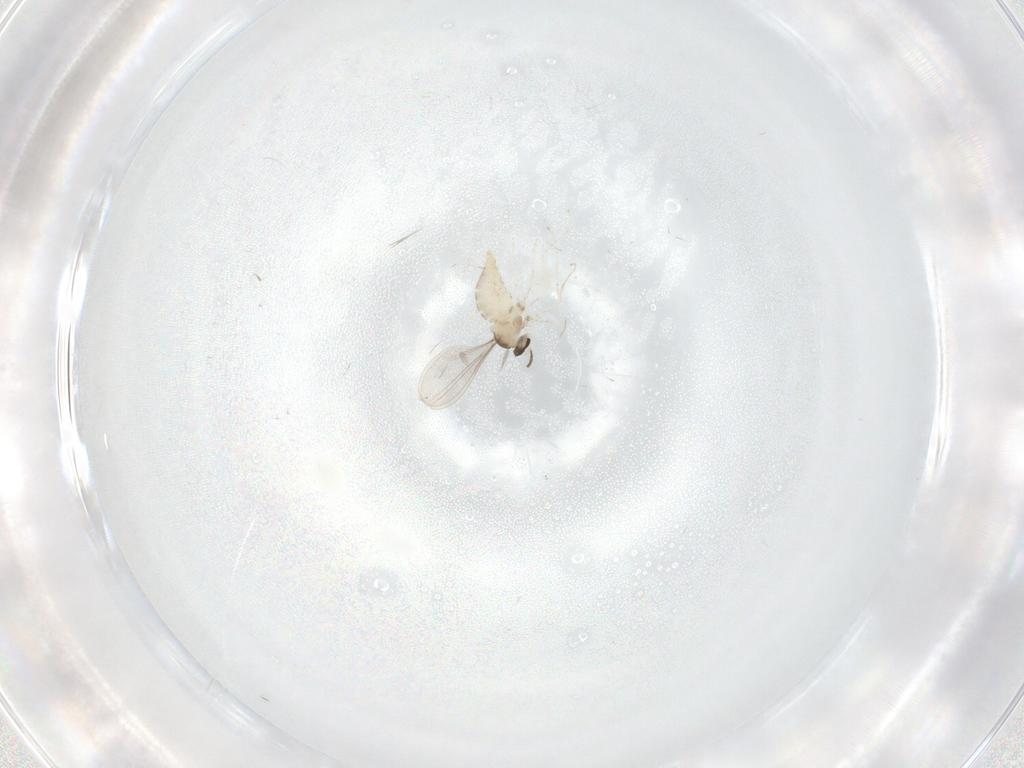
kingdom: Animalia
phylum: Arthropoda
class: Insecta
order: Diptera
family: Cecidomyiidae
